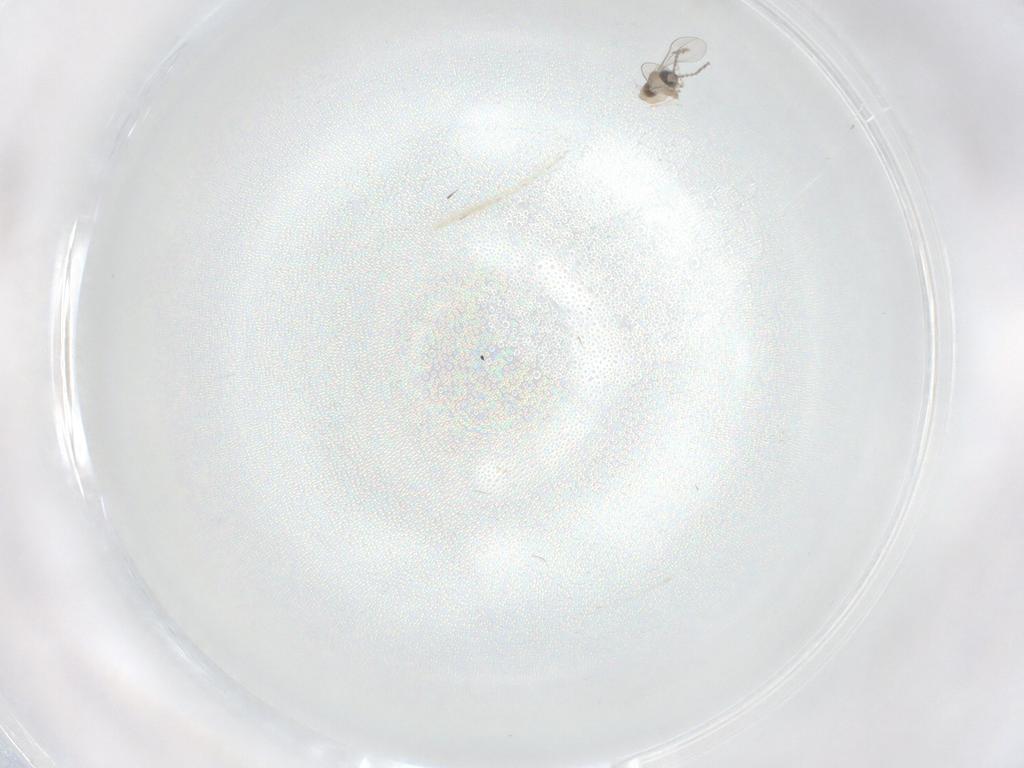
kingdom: Animalia
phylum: Arthropoda
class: Insecta
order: Diptera
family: Cecidomyiidae
